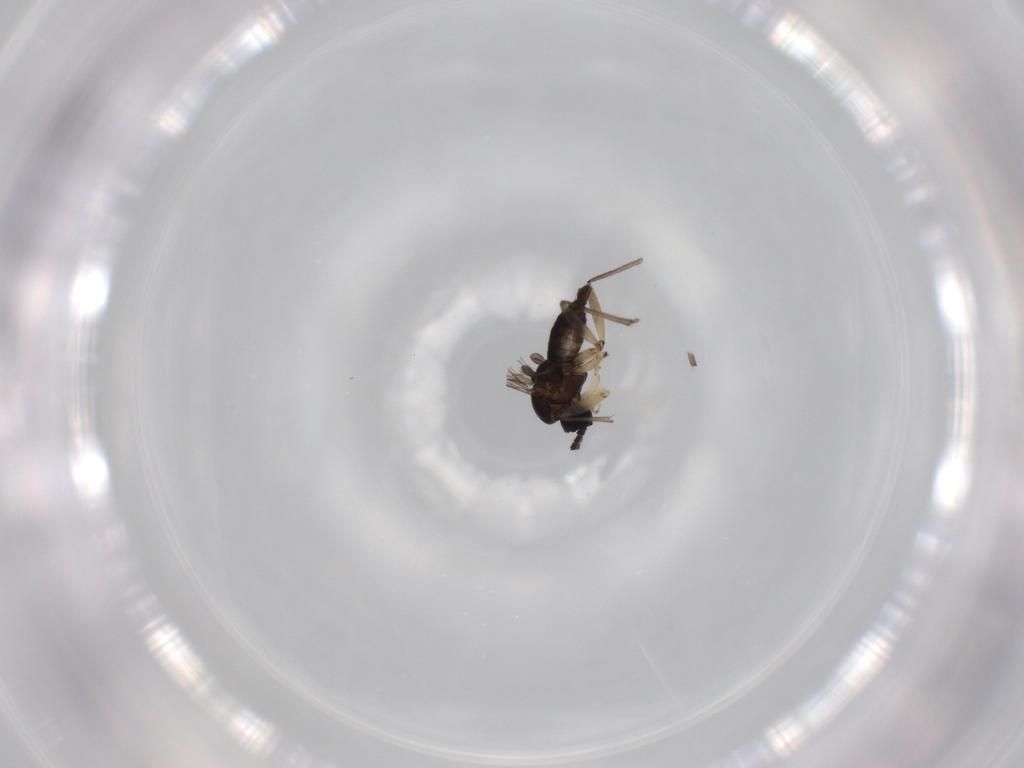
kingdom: Animalia
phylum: Arthropoda
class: Insecta
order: Diptera
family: Sciaridae
